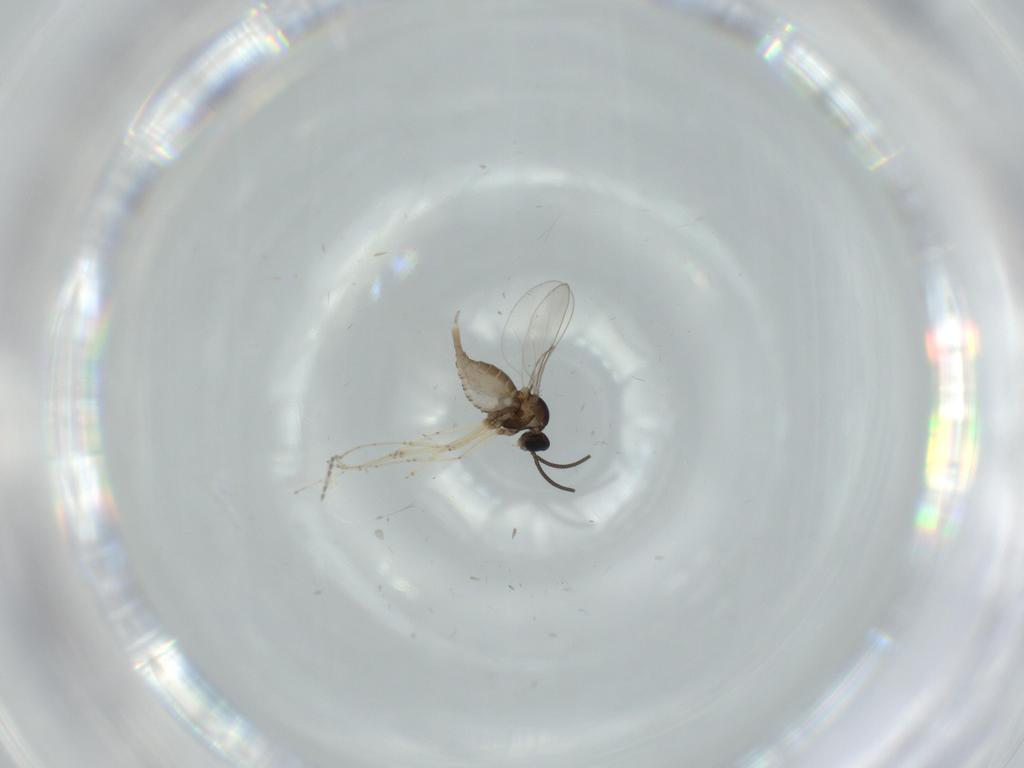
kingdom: Animalia
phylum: Arthropoda
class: Insecta
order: Diptera
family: Cecidomyiidae
